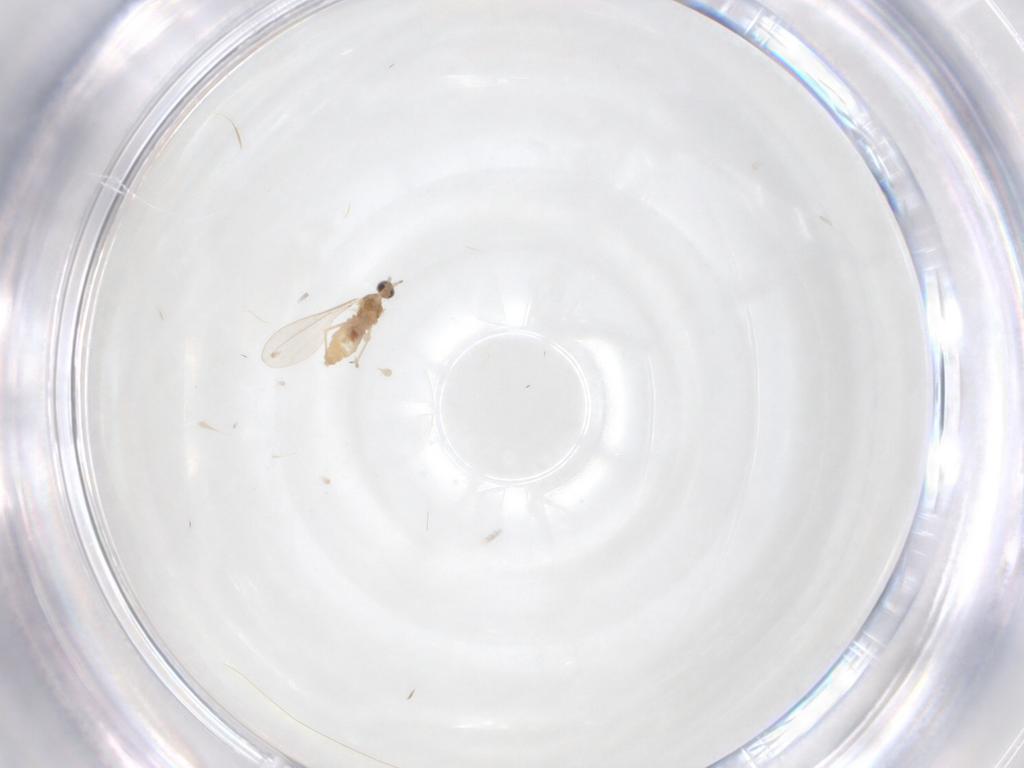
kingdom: Animalia
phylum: Arthropoda
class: Insecta
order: Diptera
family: Cecidomyiidae
